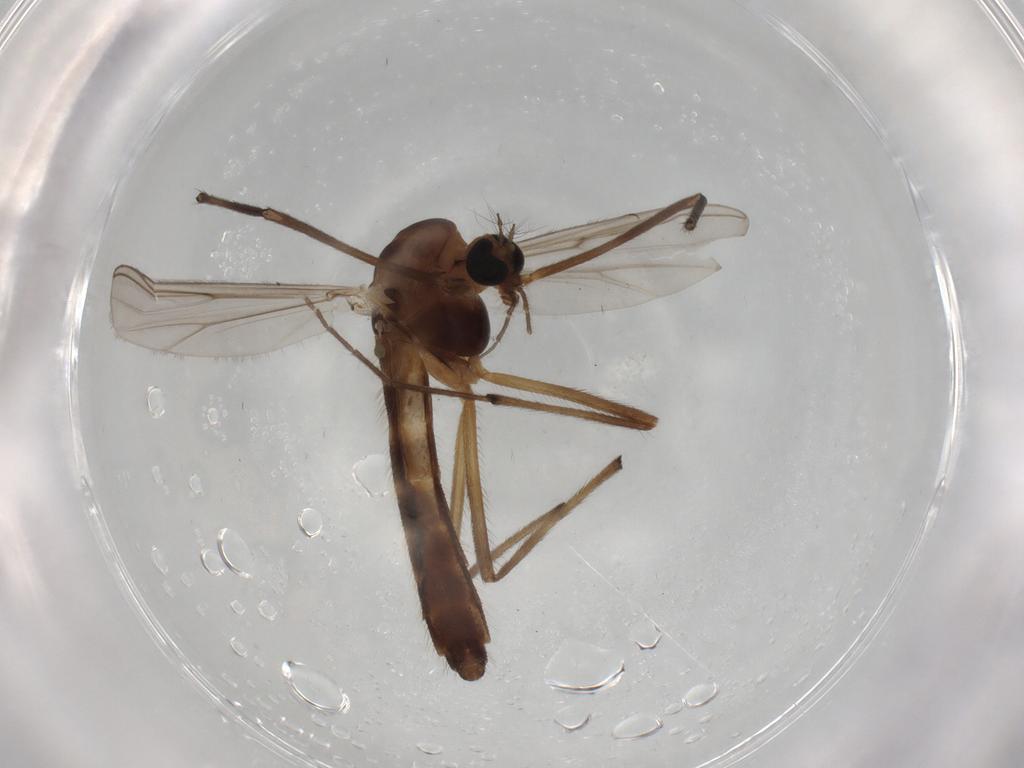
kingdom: Animalia
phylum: Arthropoda
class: Insecta
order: Diptera
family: Chironomidae
